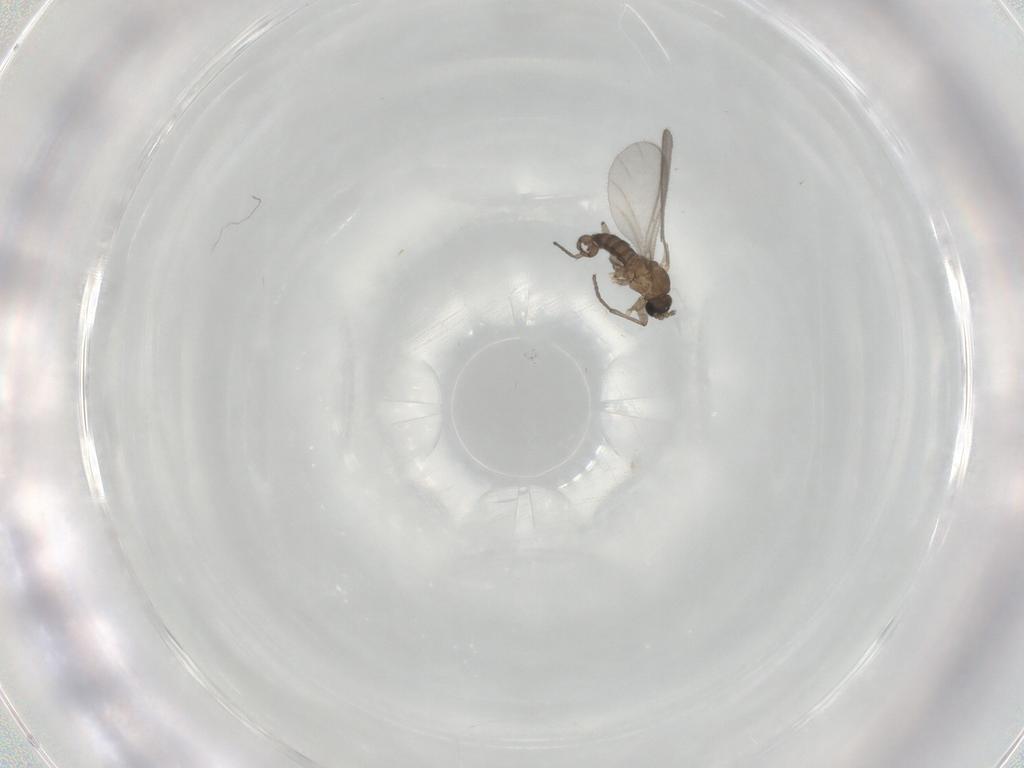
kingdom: Animalia
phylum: Arthropoda
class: Insecta
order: Diptera
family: Sciaridae
